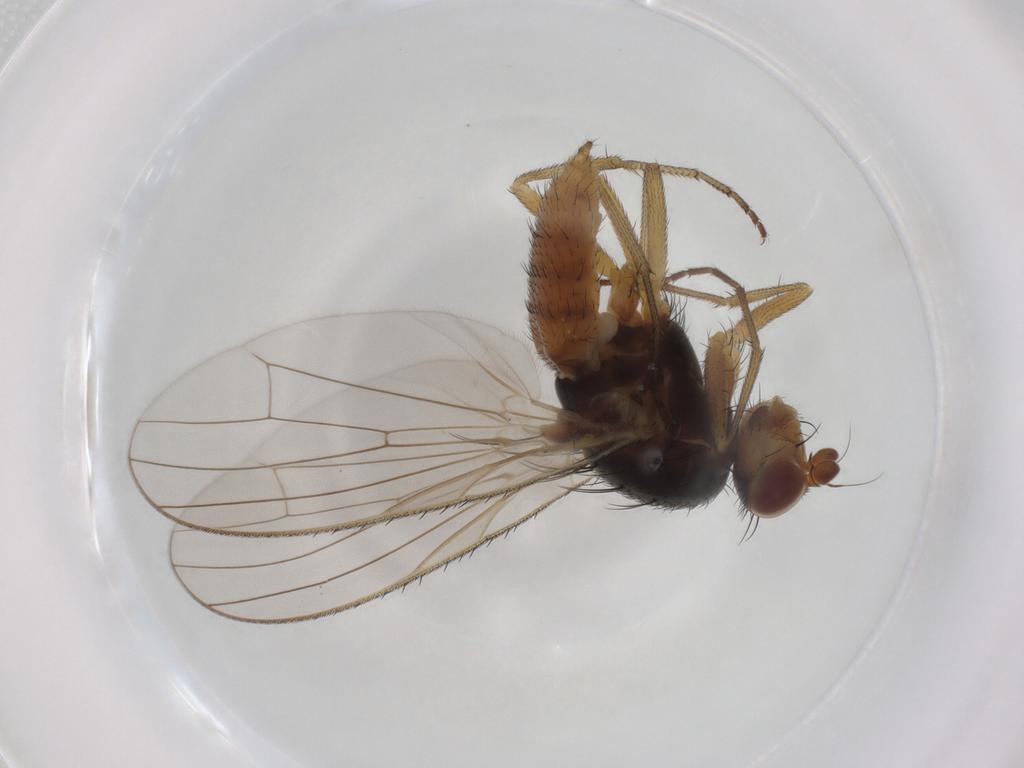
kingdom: Animalia
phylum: Arthropoda
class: Insecta
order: Diptera
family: Heleomyzidae
